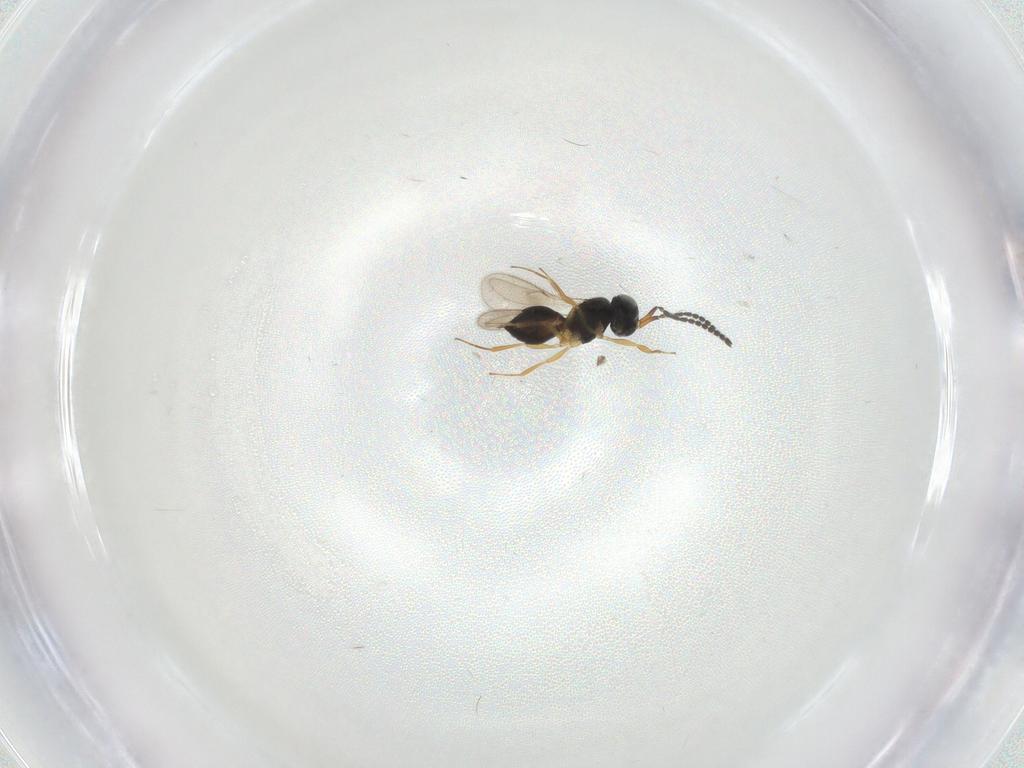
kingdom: Animalia
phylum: Arthropoda
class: Insecta
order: Hymenoptera
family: Scelionidae
